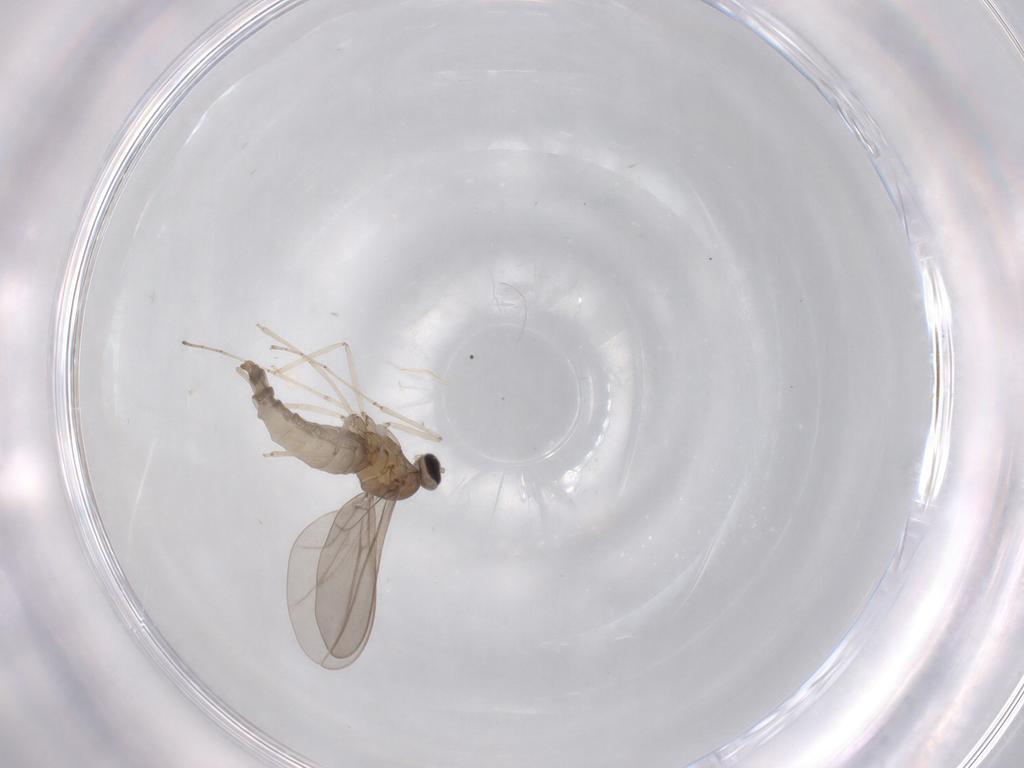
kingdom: Animalia
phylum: Arthropoda
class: Insecta
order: Diptera
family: Cecidomyiidae
